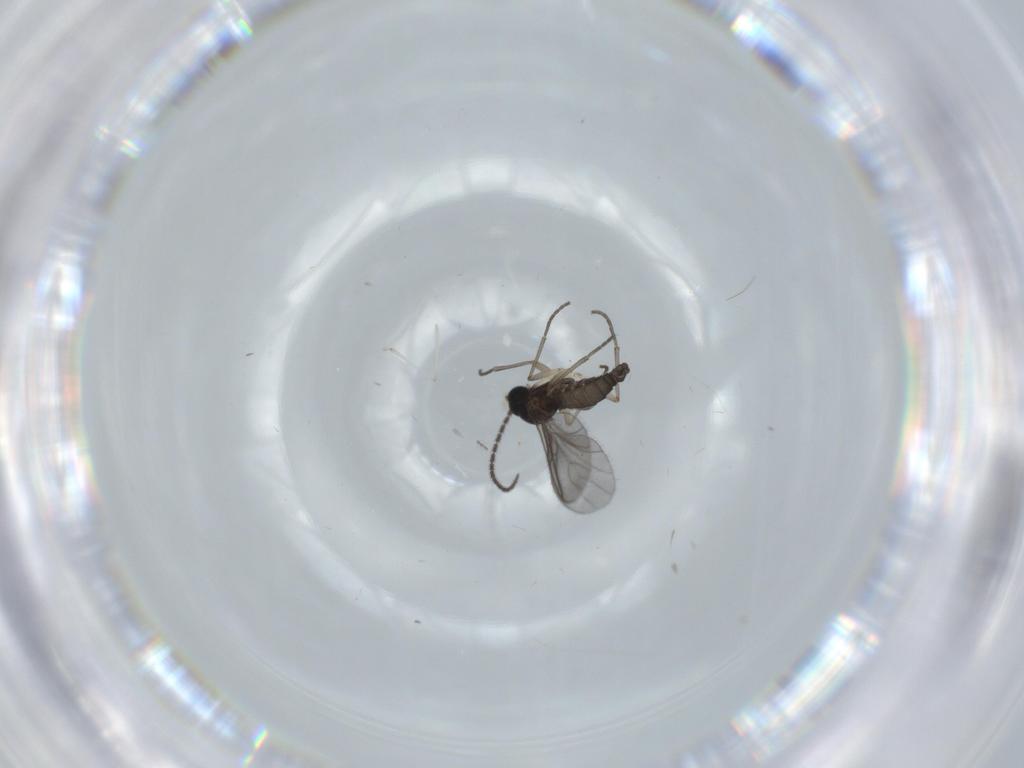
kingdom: Animalia
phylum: Arthropoda
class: Insecta
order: Diptera
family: Sciaridae
